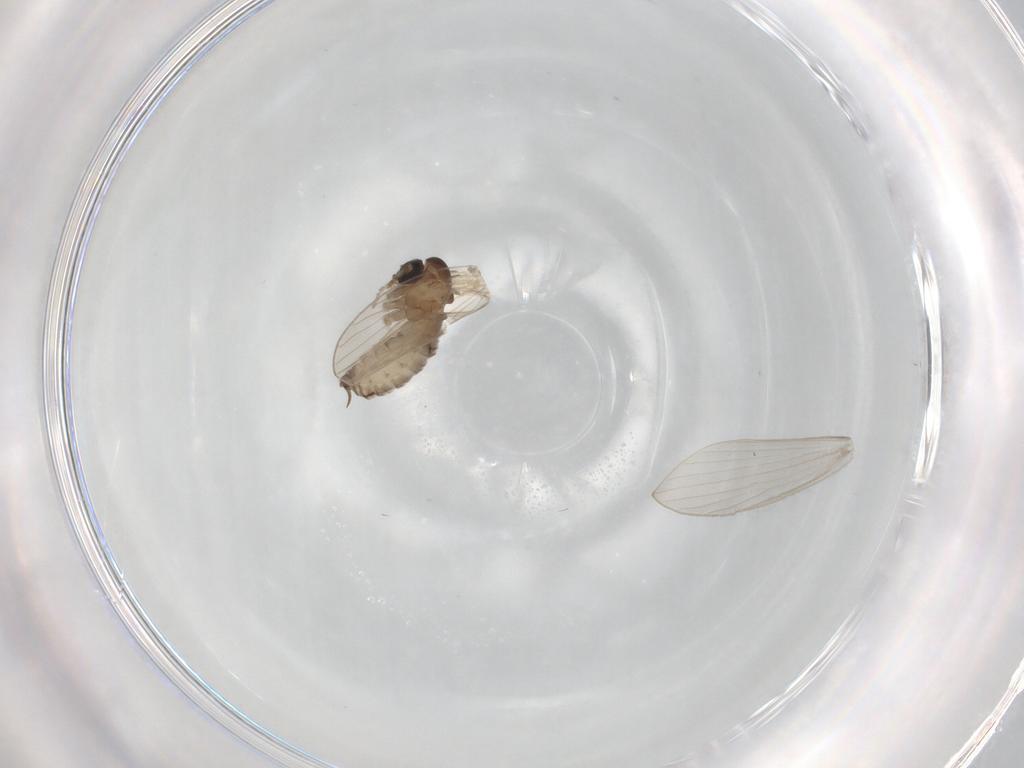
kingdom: Animalia
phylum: Arthropoda
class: Insecta
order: Diptera
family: Psychodidae
